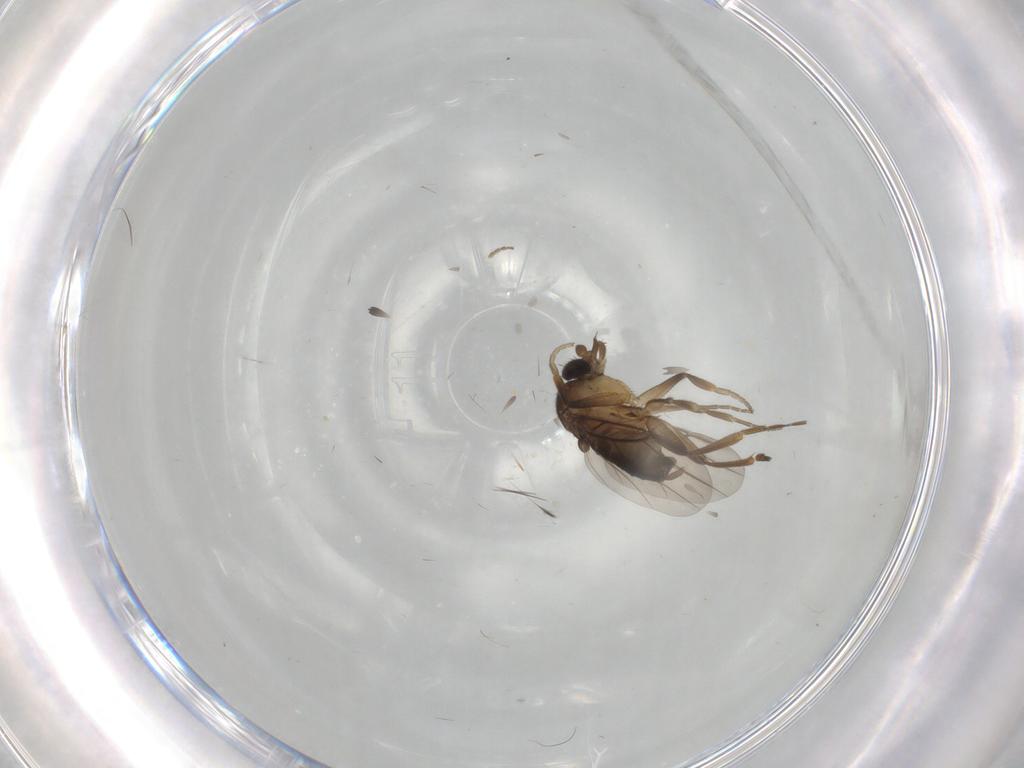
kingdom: Animalia
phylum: Arthropoda
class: Insecta
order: Diptera
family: Phoridae
